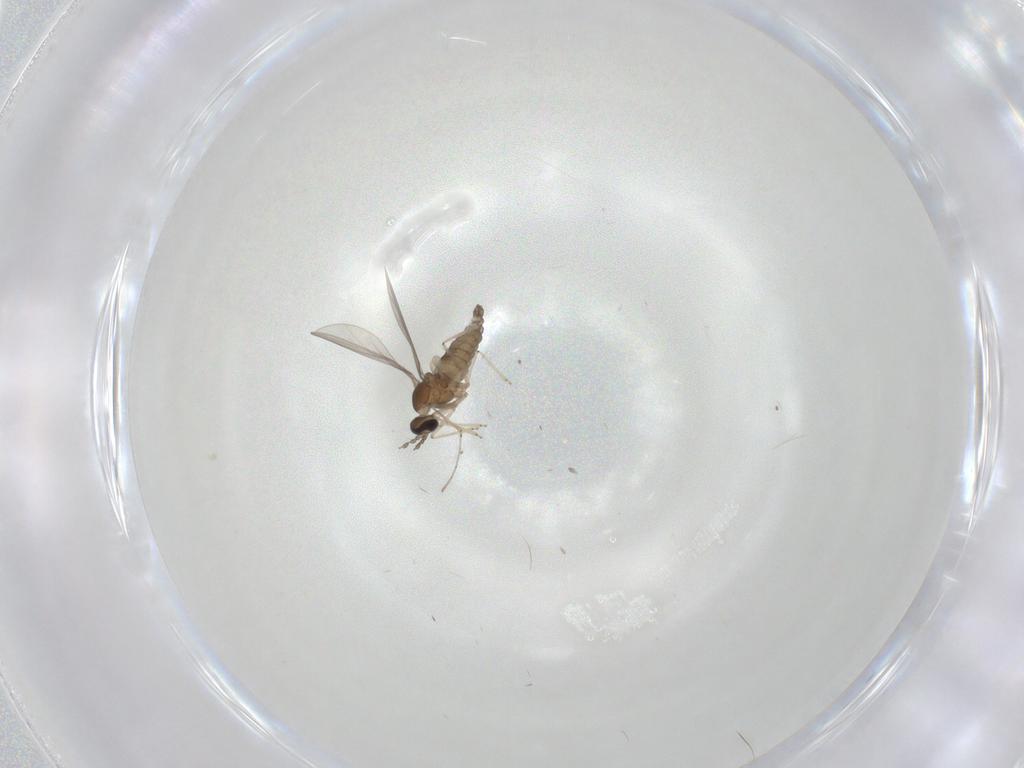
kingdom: Animalia
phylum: Arthropoda
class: Insecta
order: Diptera
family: Cecidomyiidae
